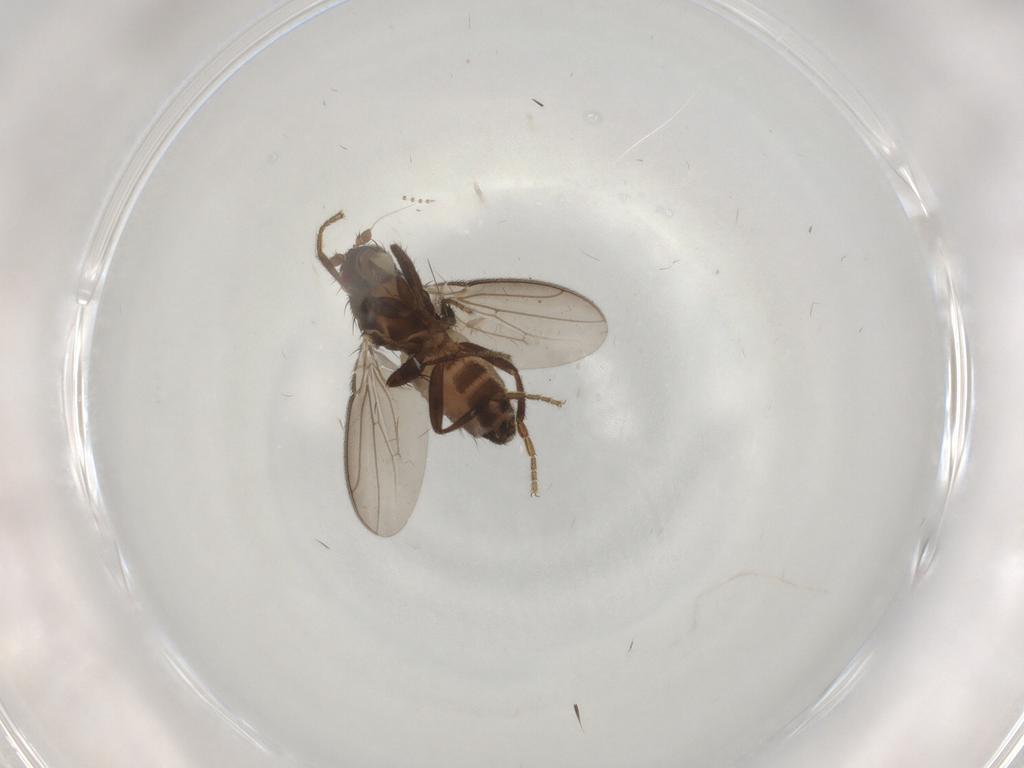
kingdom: Animalia
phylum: Arthropoda
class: Insecta
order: Diptera
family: Sphaeroceridae
